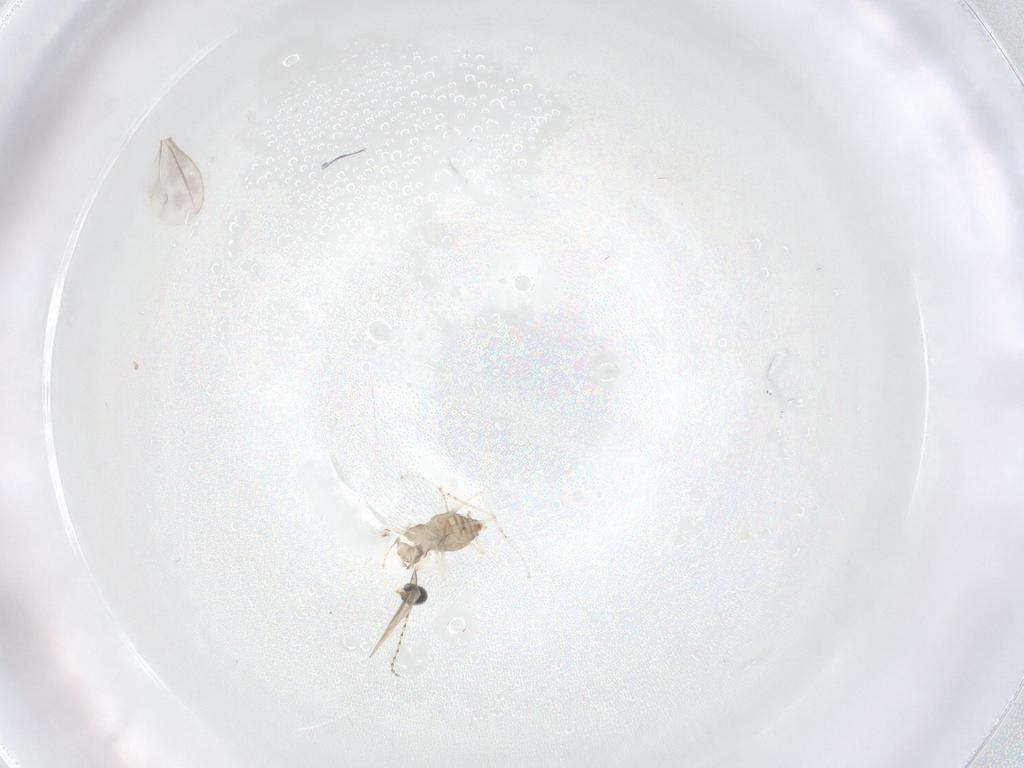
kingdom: Animalia
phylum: Arthropoda
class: Insecta
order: Diptera
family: Cecidomyiidae
